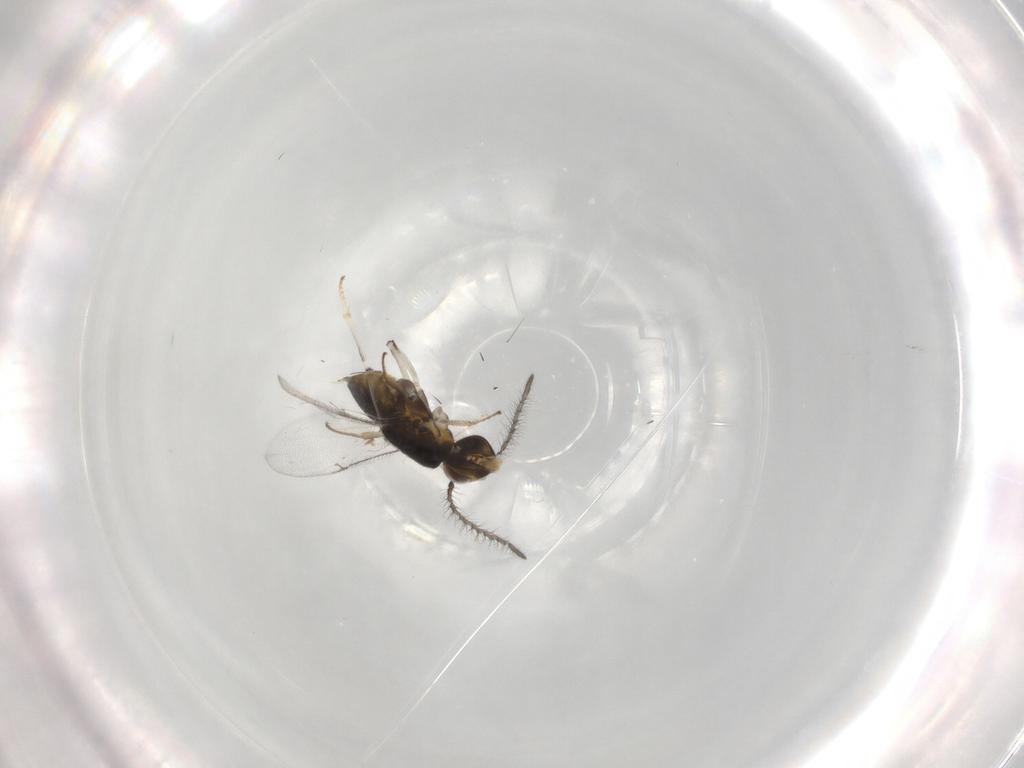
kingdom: Animalia
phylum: Arthropoda
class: Insecta
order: Hymenoptera
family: Encyrtidae
